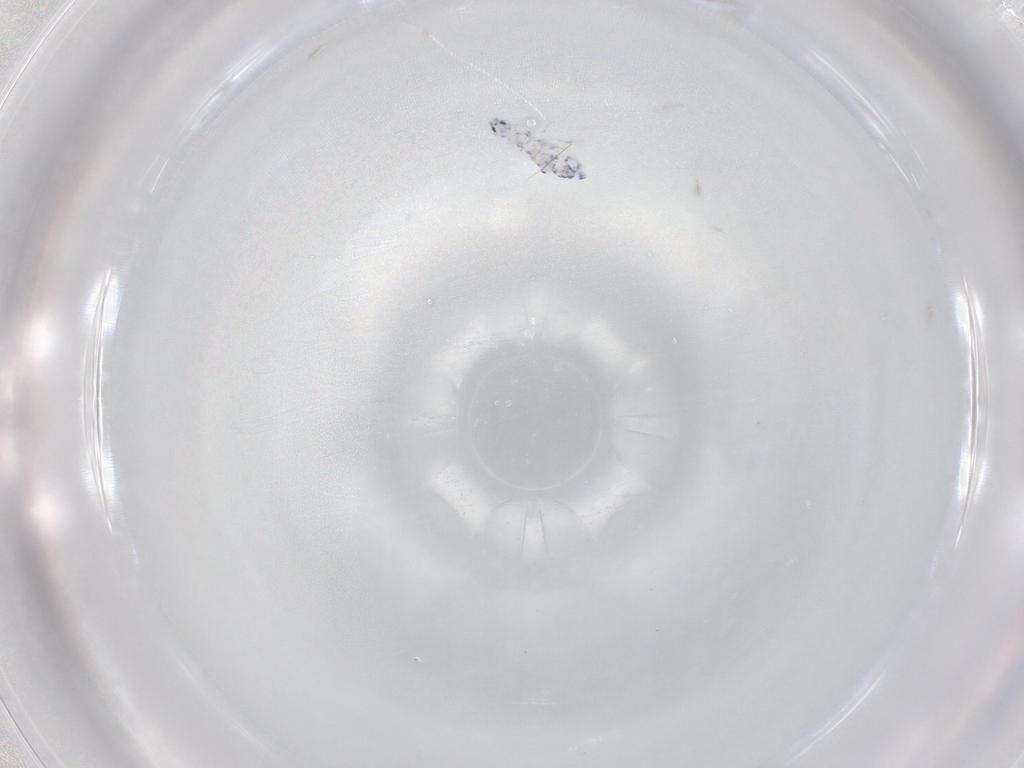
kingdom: Animalia
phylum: Arthropoda
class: Collembola
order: Entomobryomorpha
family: Entomobryidae
